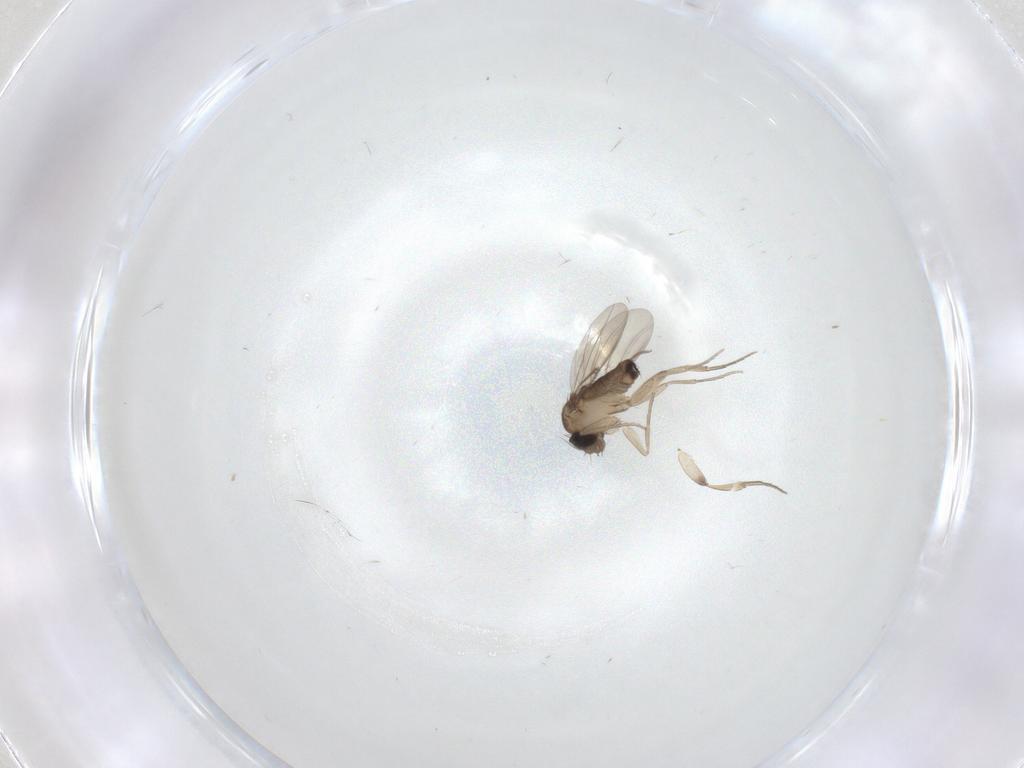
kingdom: Animalia
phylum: Arthropoda
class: Insecta
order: Diptera
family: Phoridae
